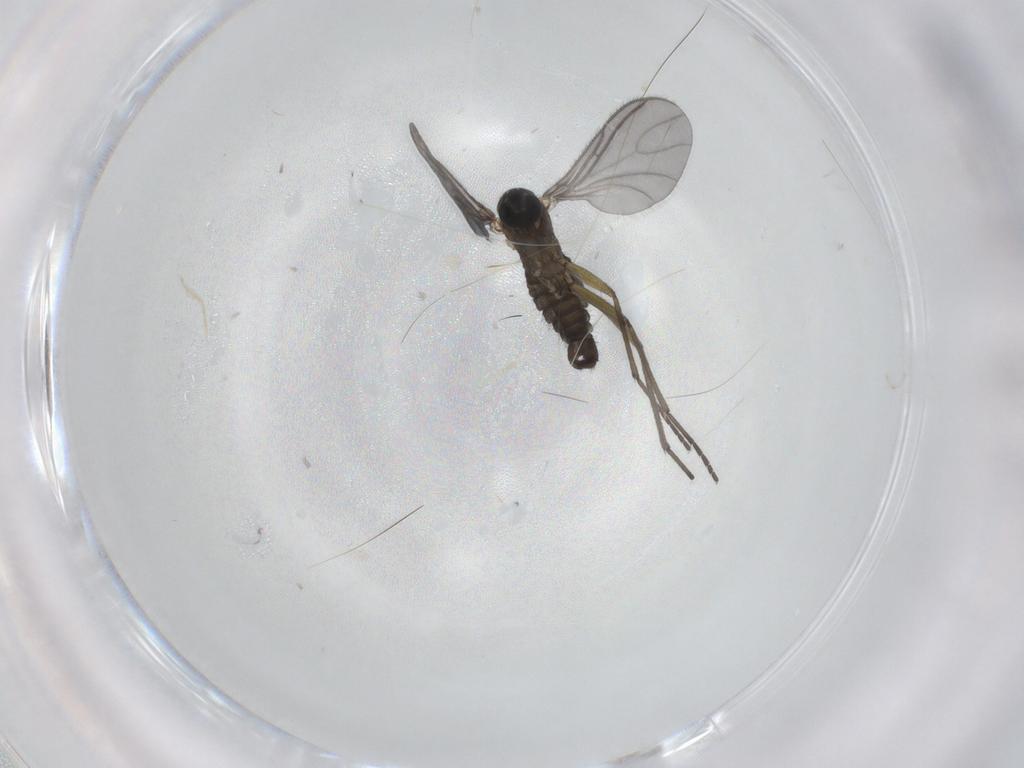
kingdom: Animalia
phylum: Arthropoda
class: Insecta
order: Diptera
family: Sciaridae
